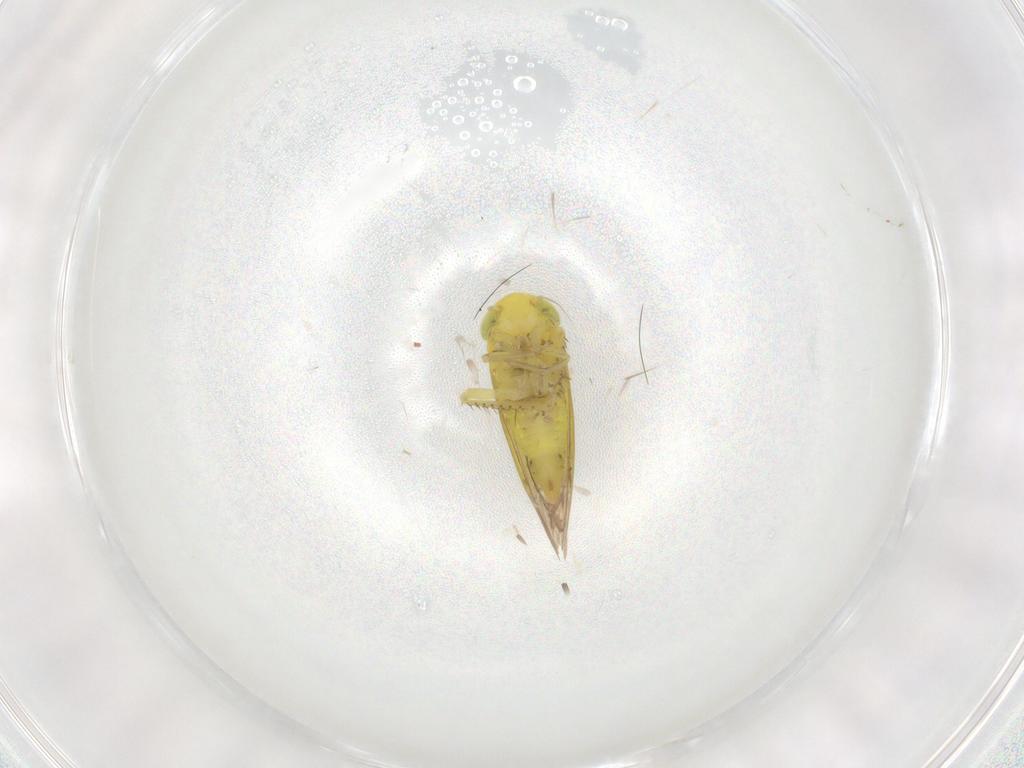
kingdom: Animalia
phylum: Arthropoda
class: Insecta
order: Hemiptera
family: Cicadellidae
